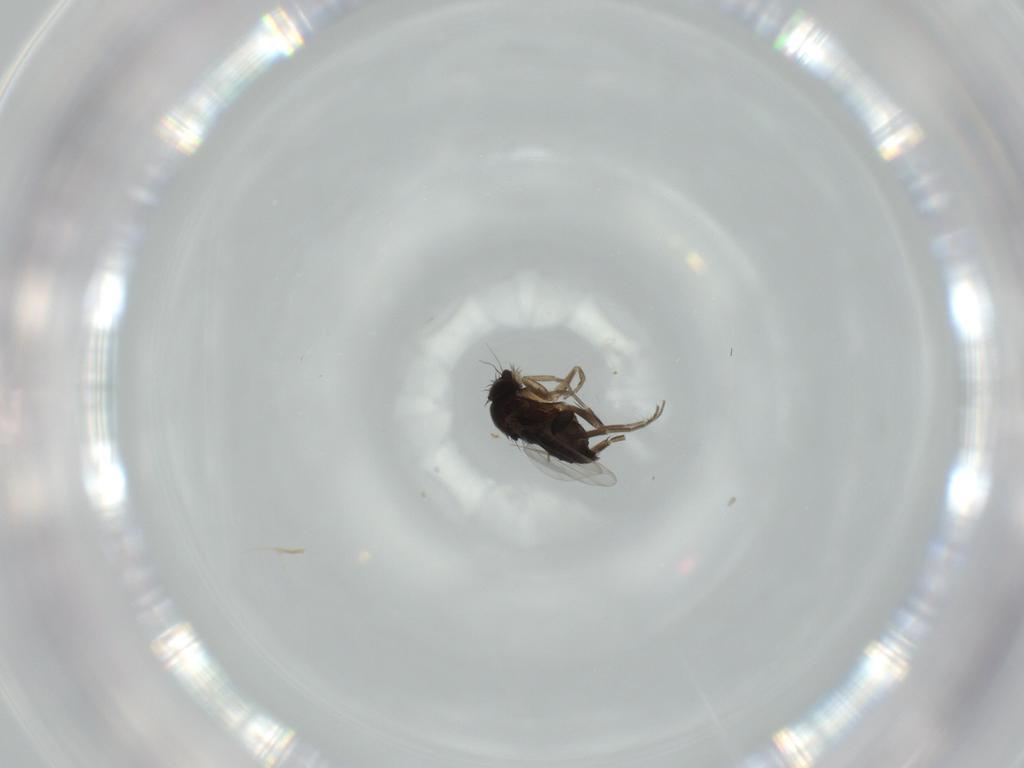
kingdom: Animalia
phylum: Arthropoda
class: Insecta
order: Diptera
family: Phoridae
